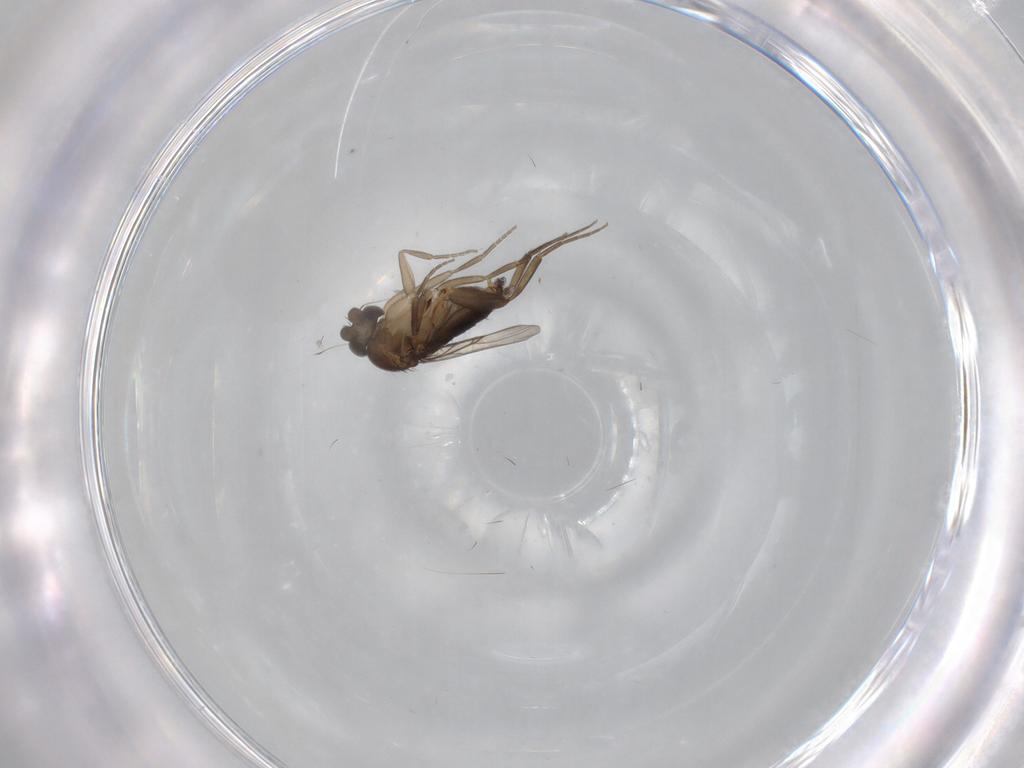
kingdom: Animalia
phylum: Arthropoda
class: Insecta
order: Diptera
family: Phoridae
